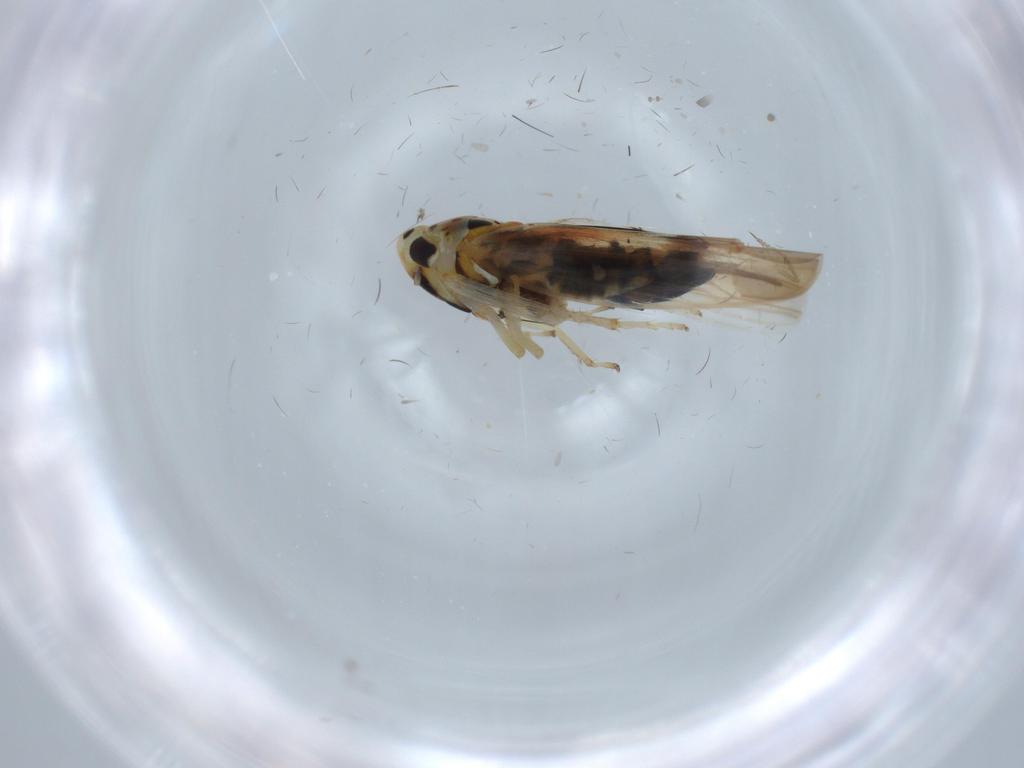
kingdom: Animalia
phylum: Arthropoda
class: Insecta
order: Hemiptera
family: Cicadellidae
